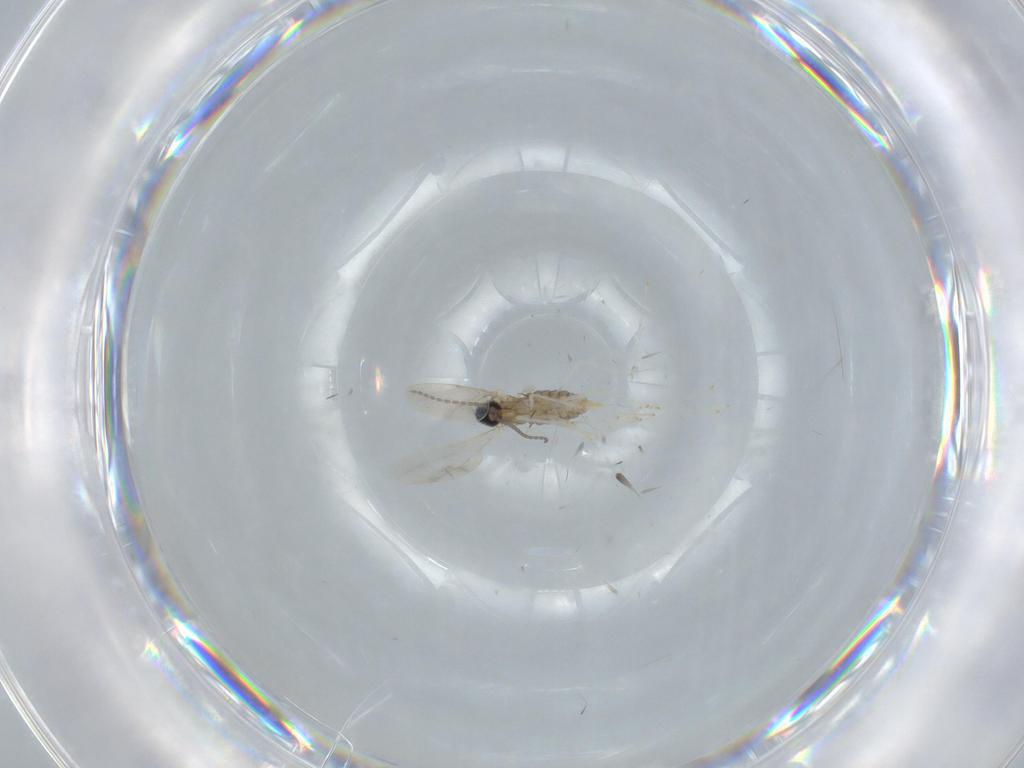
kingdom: Animalia
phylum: Arthropoda
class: Insecta
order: Diptera
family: Cecidomyiidae
